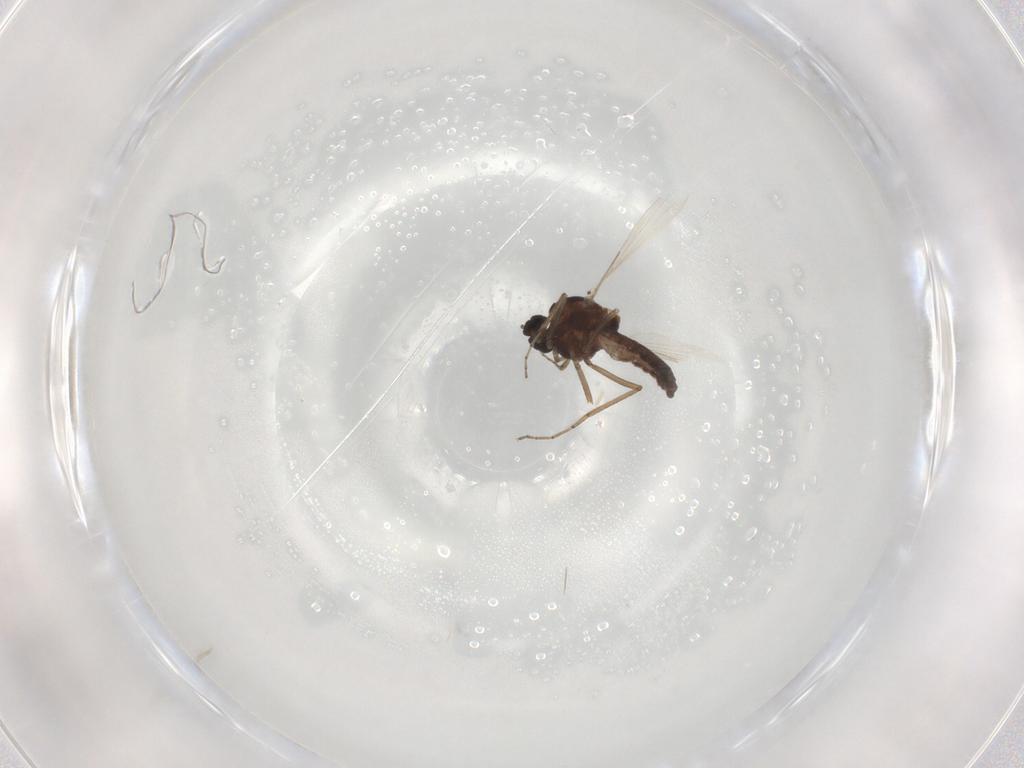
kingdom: Animalia
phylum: Arthropoda
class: Insecta
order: Diptera
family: Ceratopogonidae
